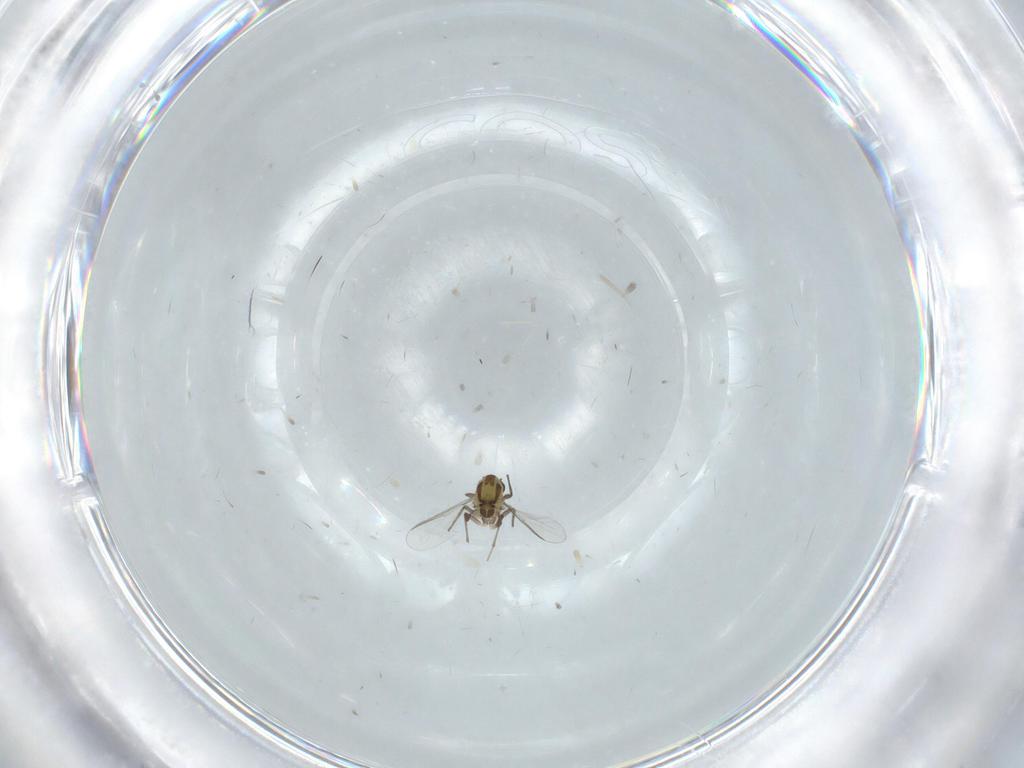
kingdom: Animalia
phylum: Arthropoda
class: Insecta
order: Diptera
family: Chironomidae
